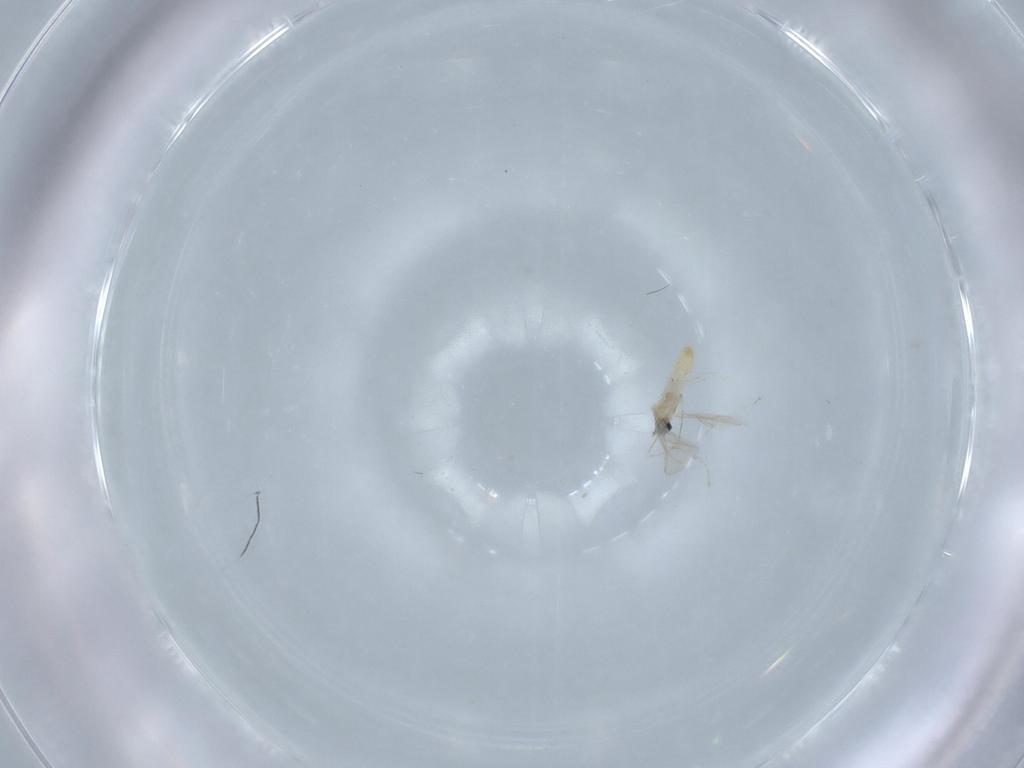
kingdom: Animalia
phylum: Arthropoda
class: Insecta
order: Diptera
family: Cecidomyiidae
